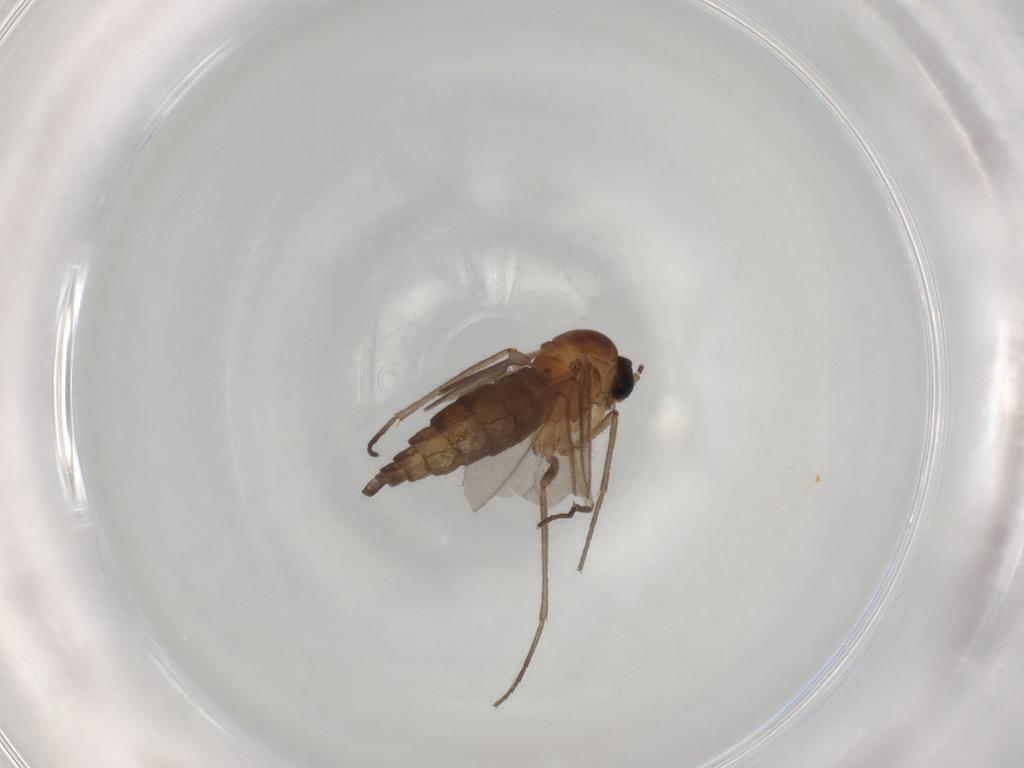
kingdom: Animalia
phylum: Arthropoda
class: Insecta
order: Diptera
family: Sciaridae
